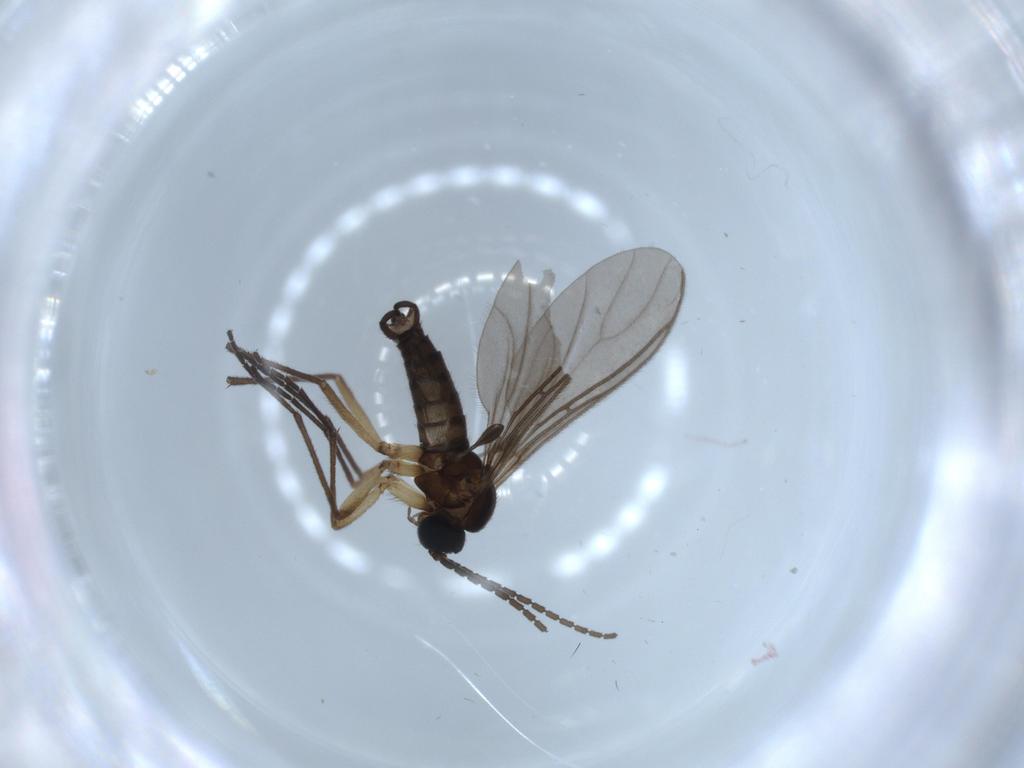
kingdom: Animalia
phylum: Arthropoda
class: Insecta
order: Diptera
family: Sciaridae
